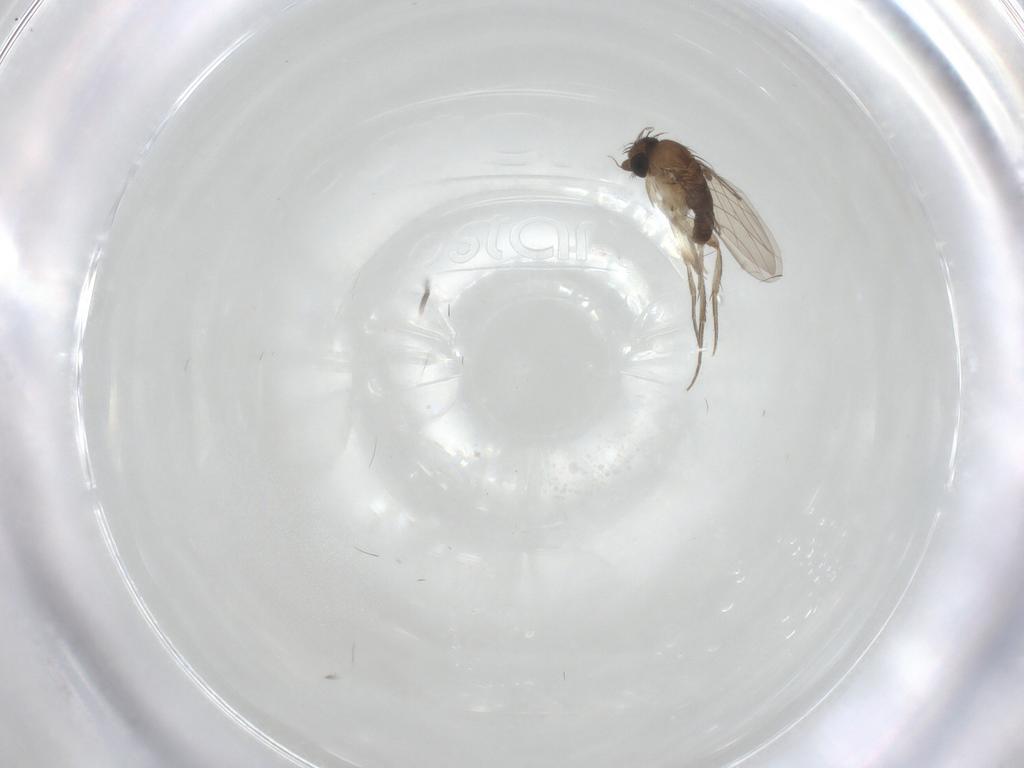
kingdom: Animalia
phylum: Arthropoda
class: Insecta
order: Diptera
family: Phoridae
